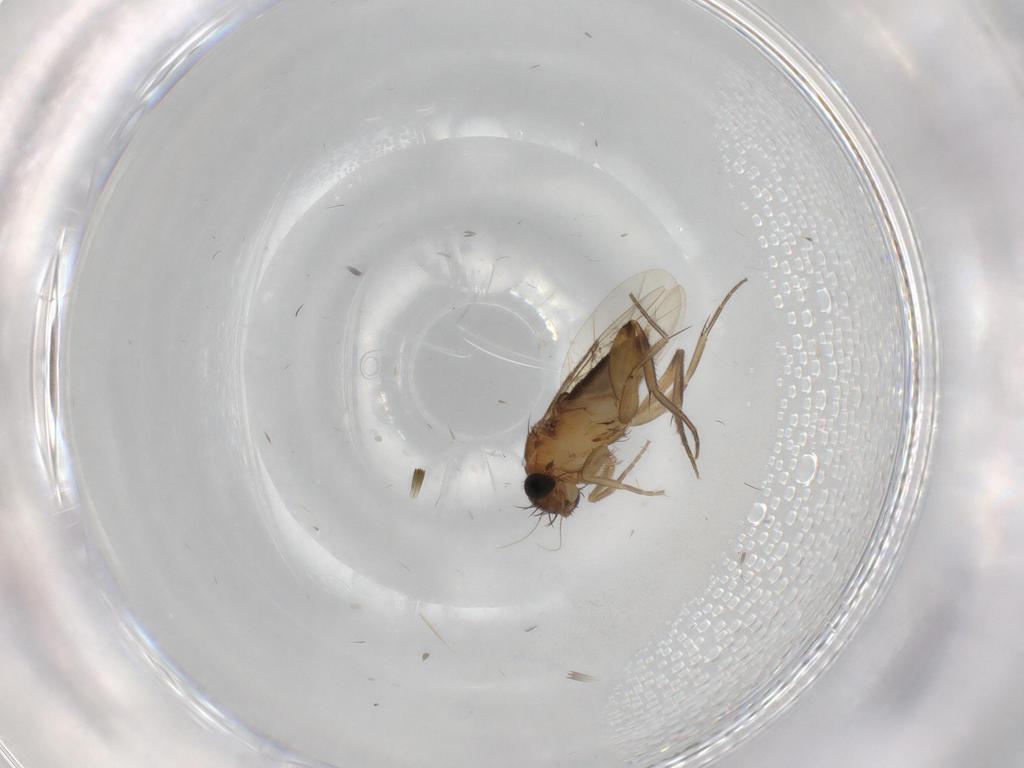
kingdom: Animalia
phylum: Arthropoda
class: Insecta
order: Diptera
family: Phoridae
